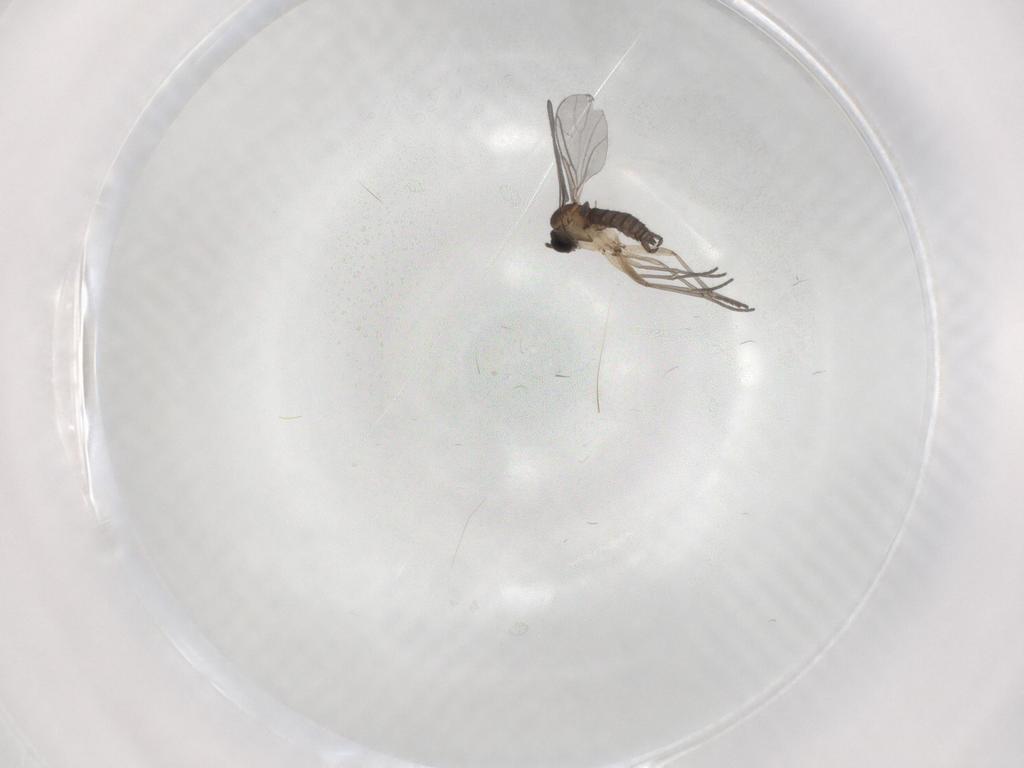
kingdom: Animalia
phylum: Arthropoda
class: Insecta
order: Diptera
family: Sciaridae
